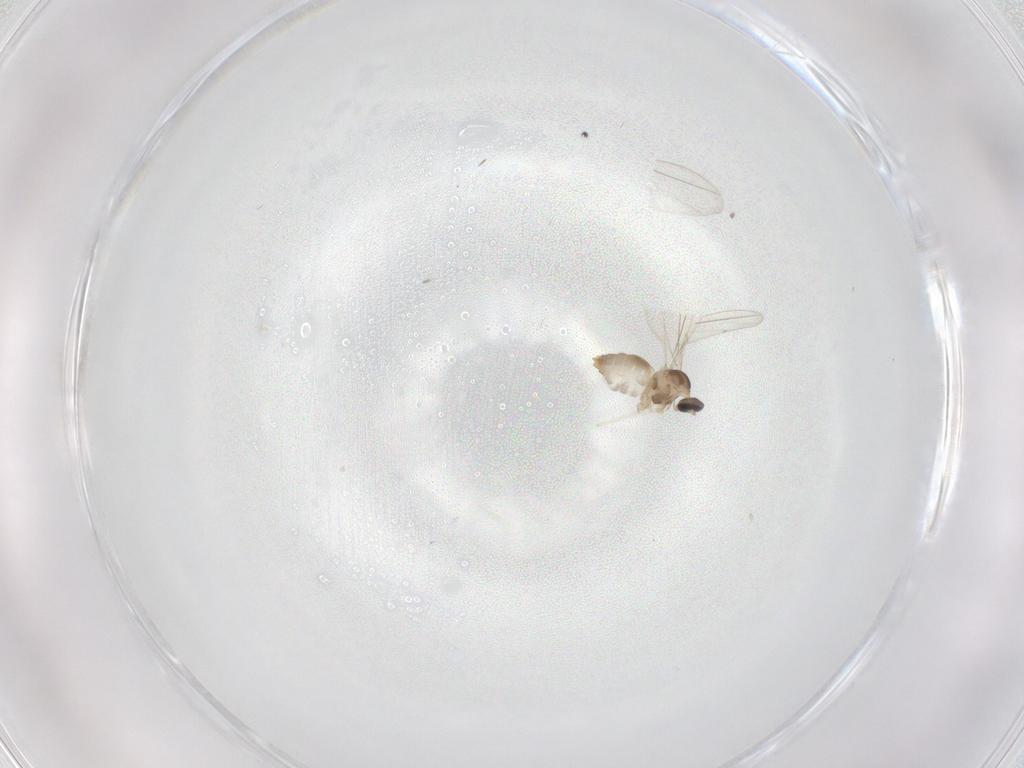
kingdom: Animalia
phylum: Arthropoda
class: Insecta
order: Diptera
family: Cecidomyiidae
